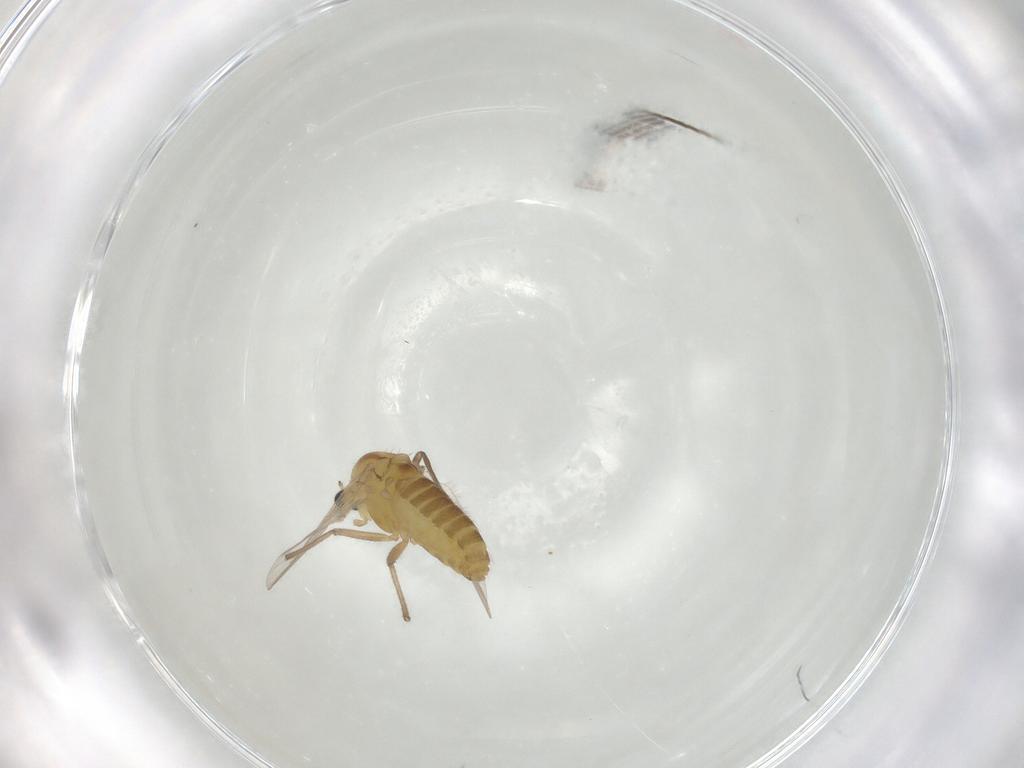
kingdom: Animalia
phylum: Arthropoda
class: Insecta
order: Diptera
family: Chironomidae
